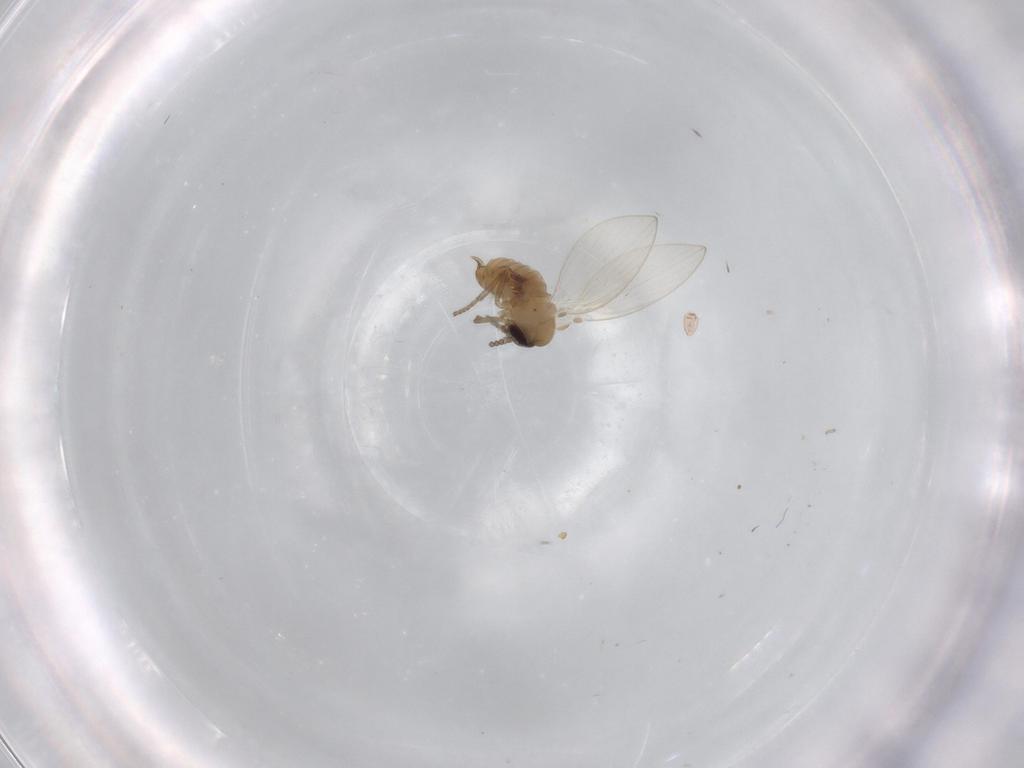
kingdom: Animalia
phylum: Arthropoda
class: Insecta
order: Diptera
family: Psychodidae
